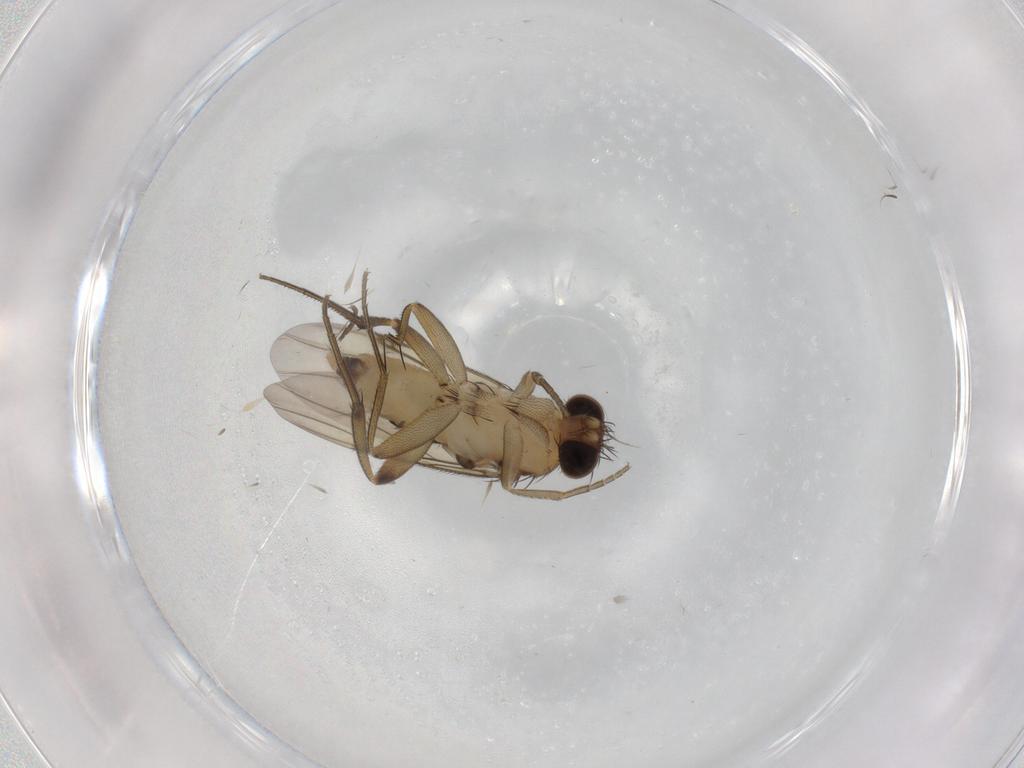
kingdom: Animalia
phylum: Arthropoda
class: Insecta
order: Diptera
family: Phoridae
